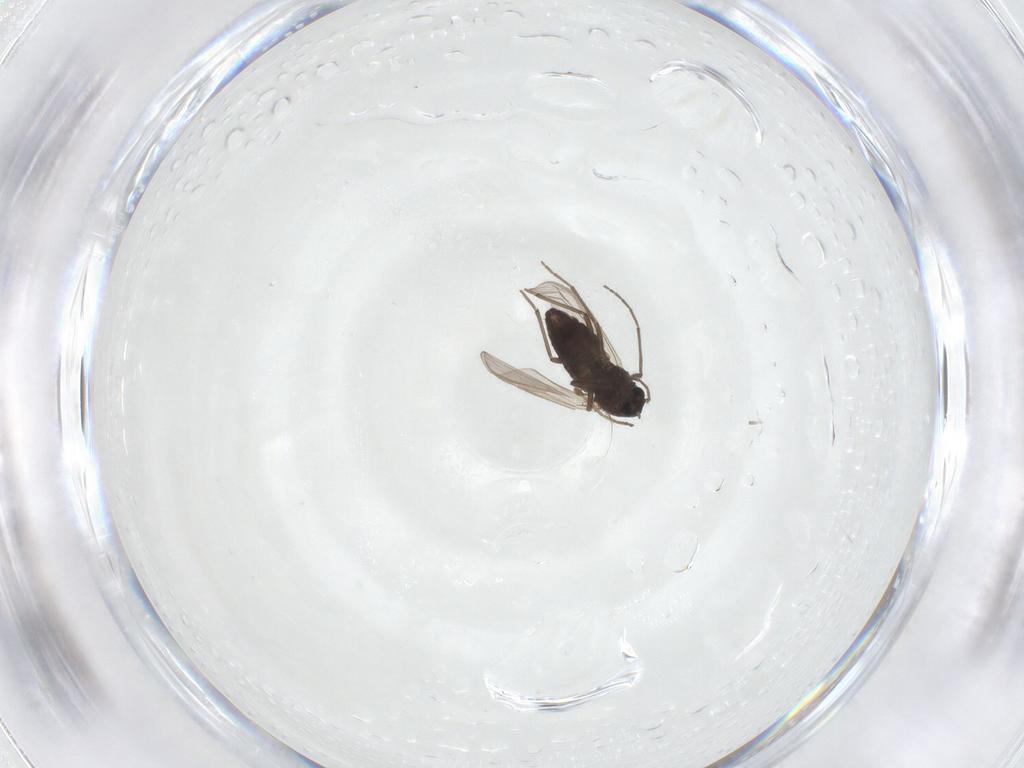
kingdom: Animalia
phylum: Arthropoda
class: Insecta
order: Diptera
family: Chironomidae
